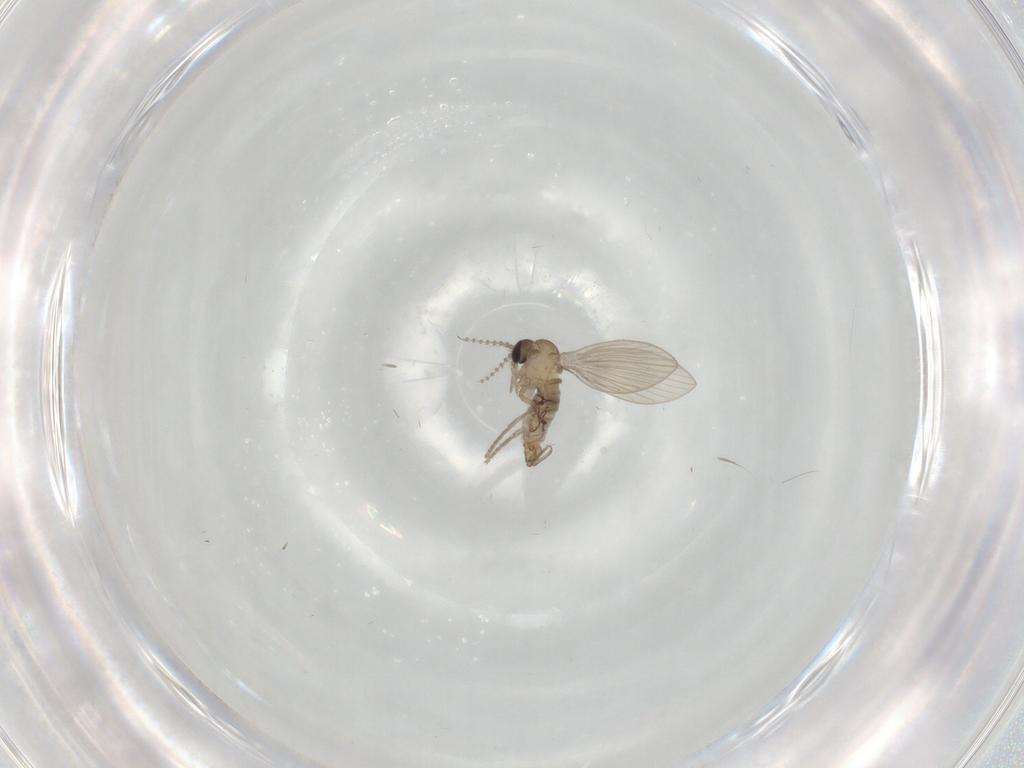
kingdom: Animalia
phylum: Arthropoda
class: Insecta
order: Diptera
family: Psychodidae
